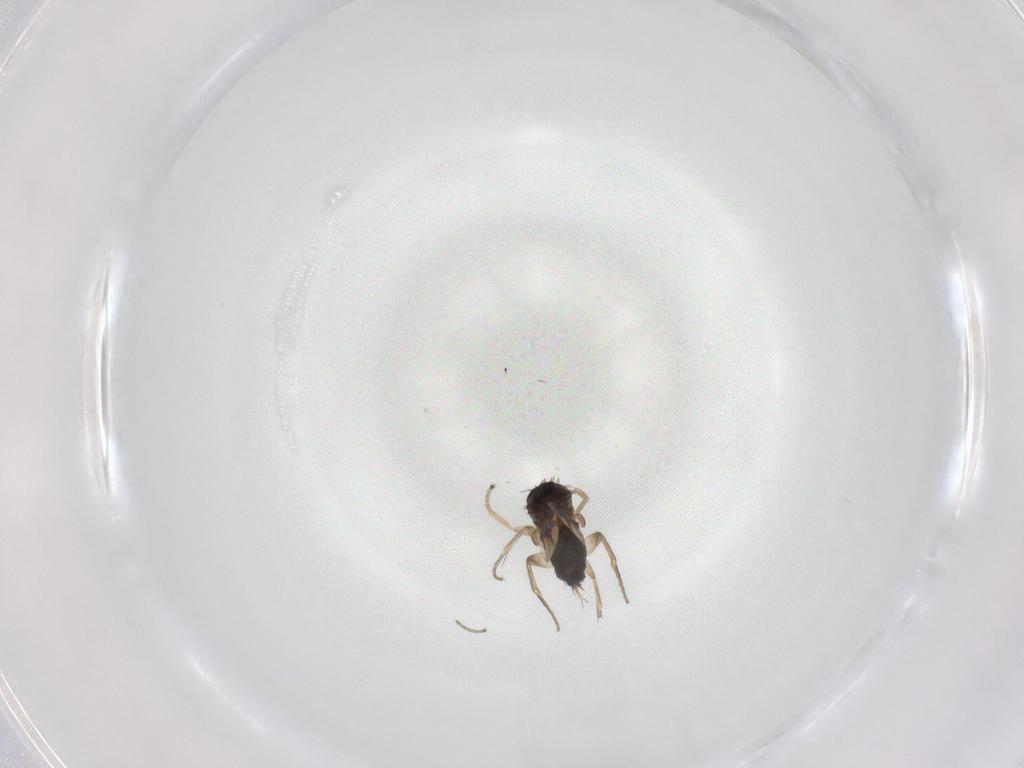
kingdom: Animalia
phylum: Arthropoda
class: Insecta
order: Diptera
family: Phoridae
